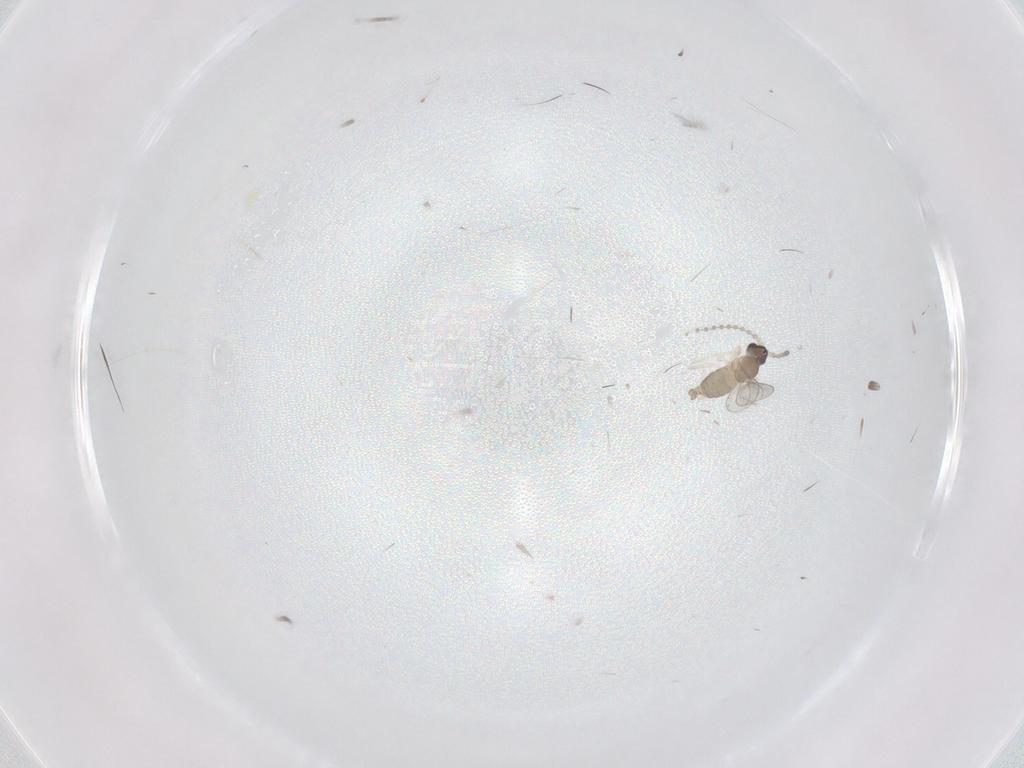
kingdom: Animalia
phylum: Arthropoda
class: Insecta
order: Diptera
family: Cecidomyiidae
